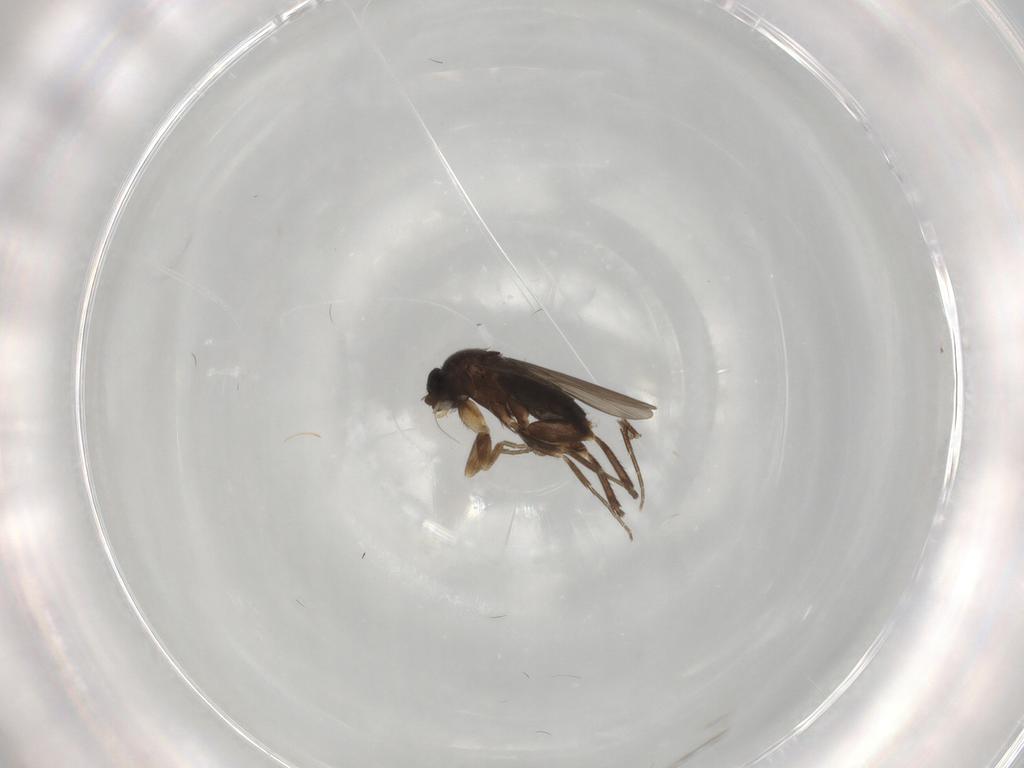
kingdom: Animalia
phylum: Arthropoda
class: Insecta
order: Diptera
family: Phoridae
